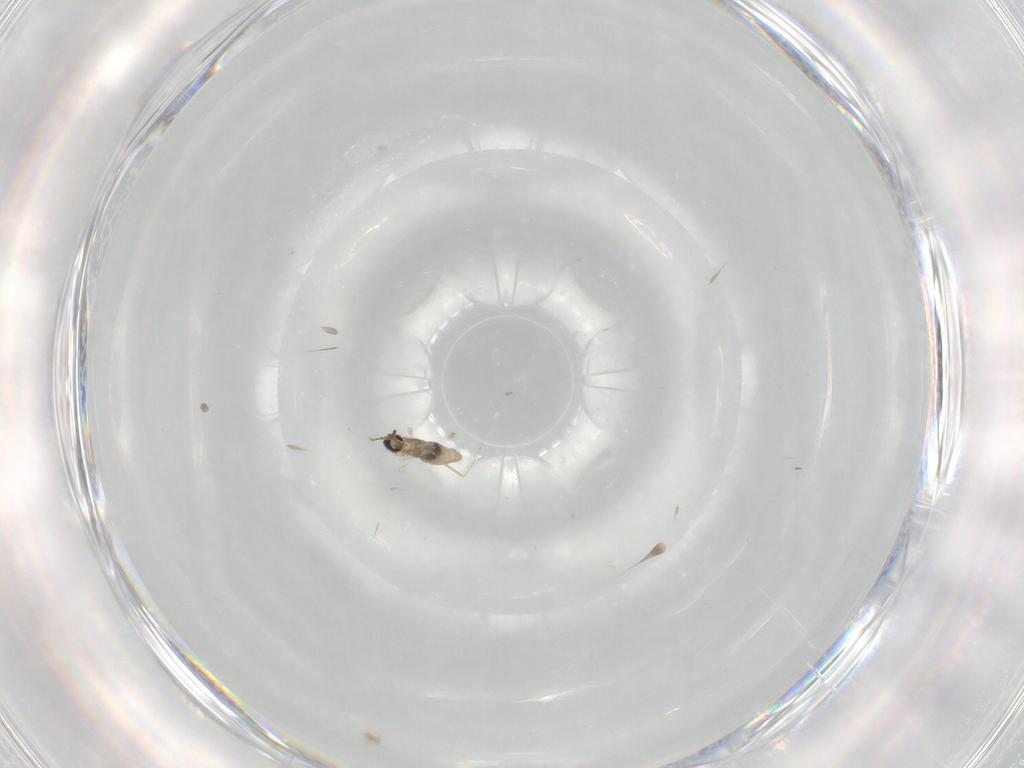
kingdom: Animalia
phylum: Arthropoda
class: Insecta
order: Diptera
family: Cecidomyiidae
